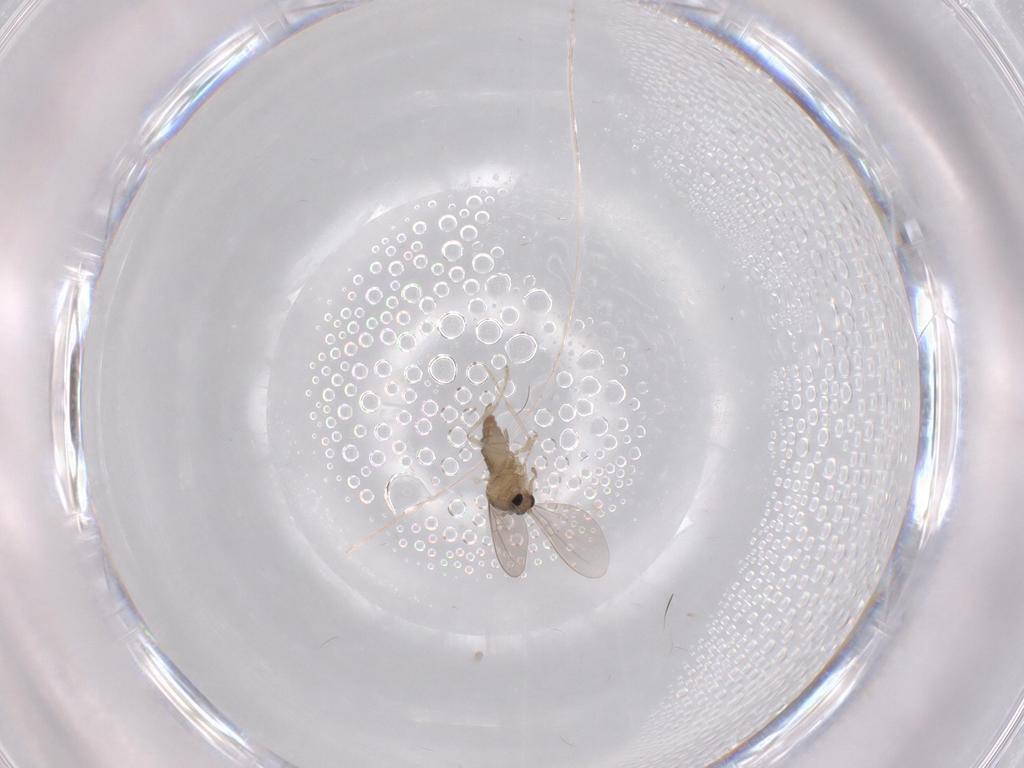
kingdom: Animalia
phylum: Arthropoda
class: Insecta
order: Diptera
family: Cecidomyiidae
